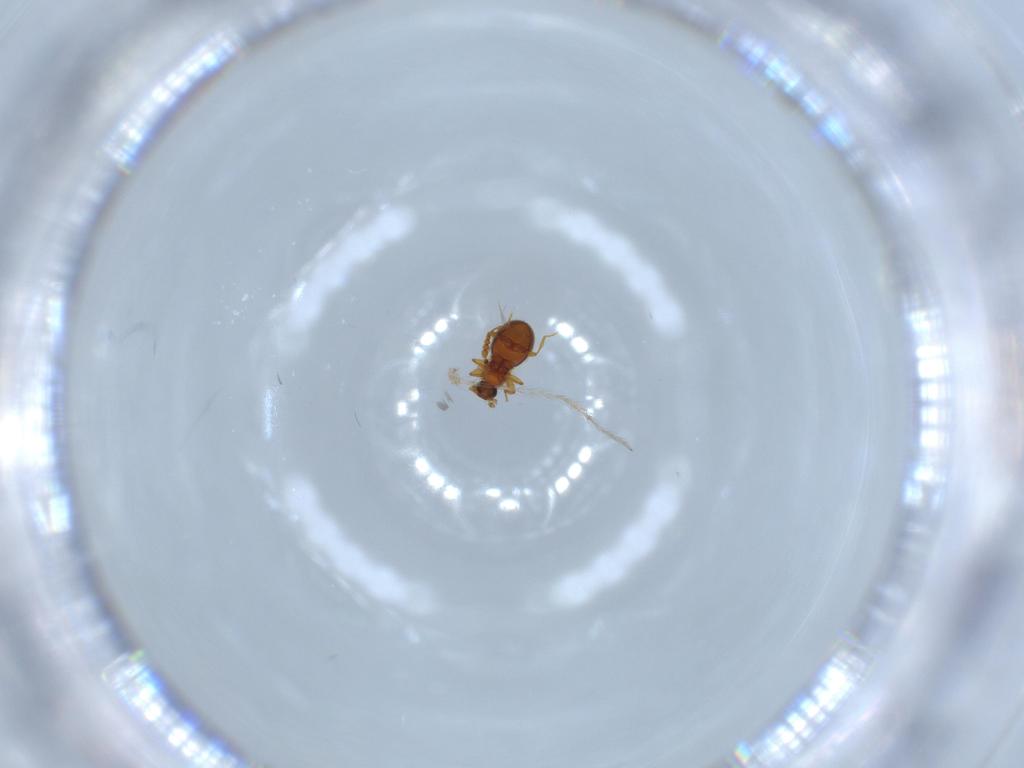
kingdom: Animalia
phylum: Arthropoda
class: Insecta
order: Coleoptera
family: Staphylinidae
